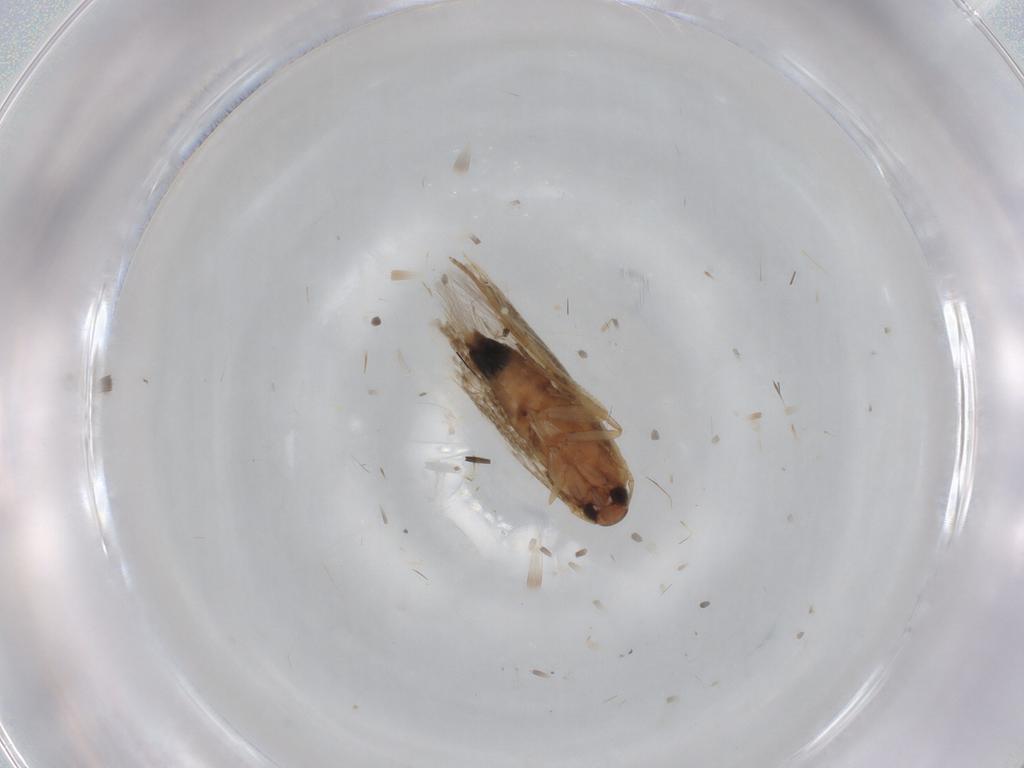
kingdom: Animalia
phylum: Arthropoda
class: Insecta
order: Lepidoptera
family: Cosmopterigidae
